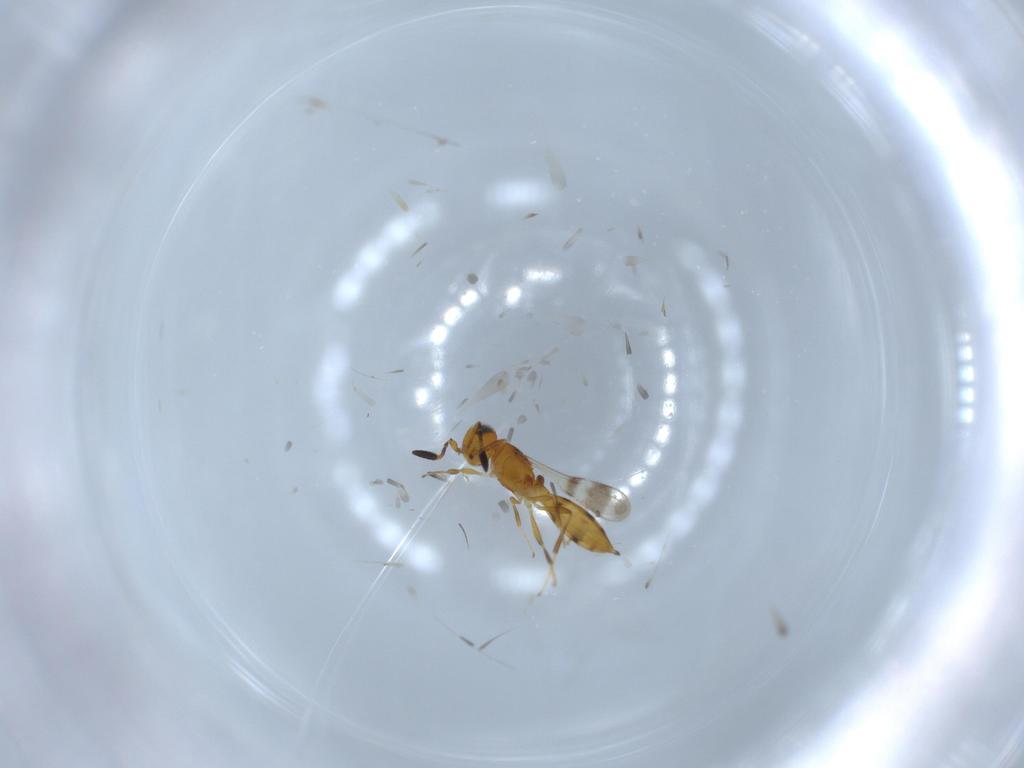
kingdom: Animalia
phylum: Arthropoda
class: Insecta
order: Hymenoptera
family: Scelionidae
